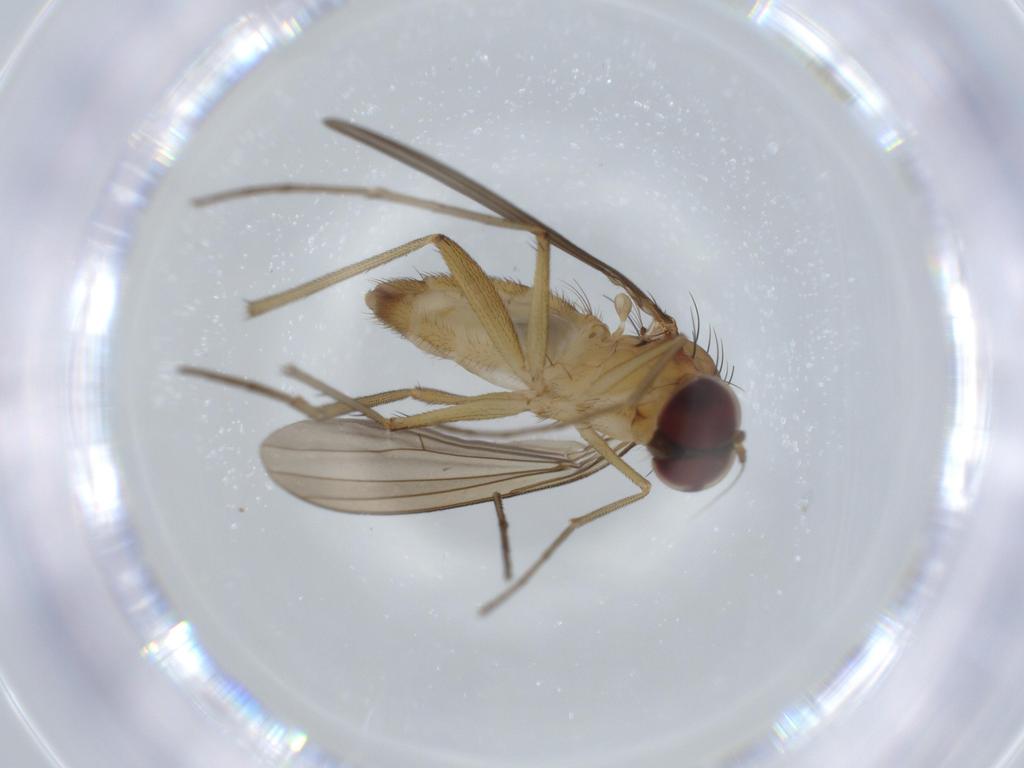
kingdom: Animalia
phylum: Arthropoda
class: Insecta
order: Diptera
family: Dolichopodidae
